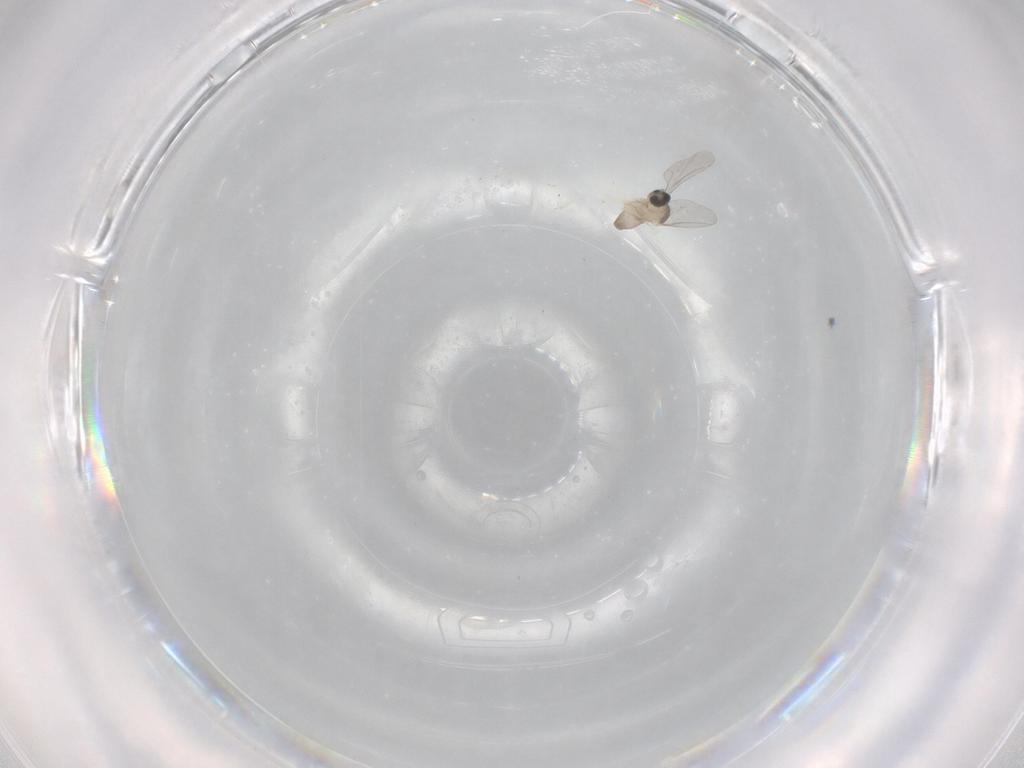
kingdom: Animalia
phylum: Arthropoda
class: Insecta
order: Diptera
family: Cecidomyiidae
